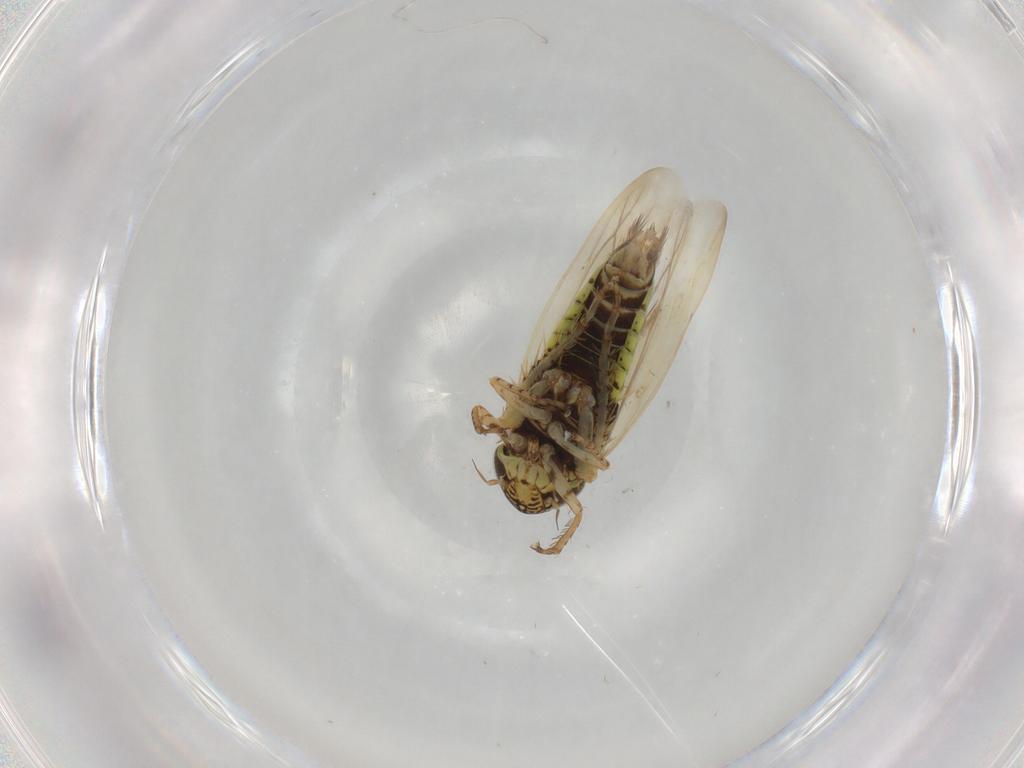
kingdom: Animalia
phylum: Arthropoda
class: Insecta
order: Hemiptera
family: Cicadellidae
